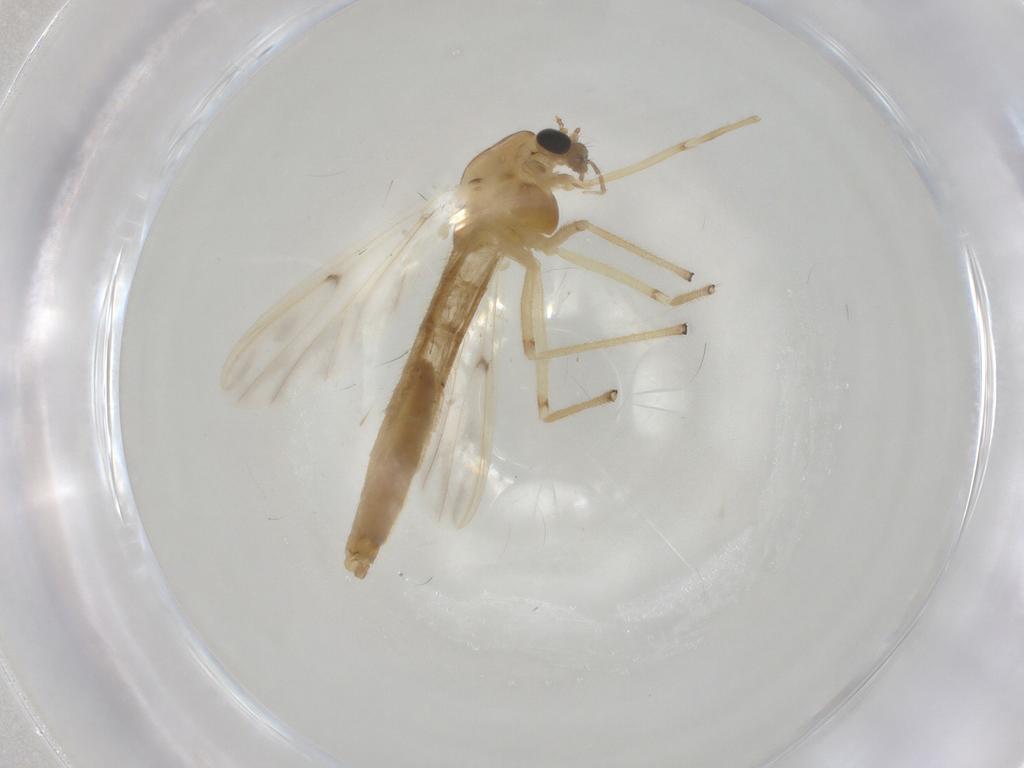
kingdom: Animalia
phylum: Arthropoda
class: Insecta
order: Diptera
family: Chironomidae
